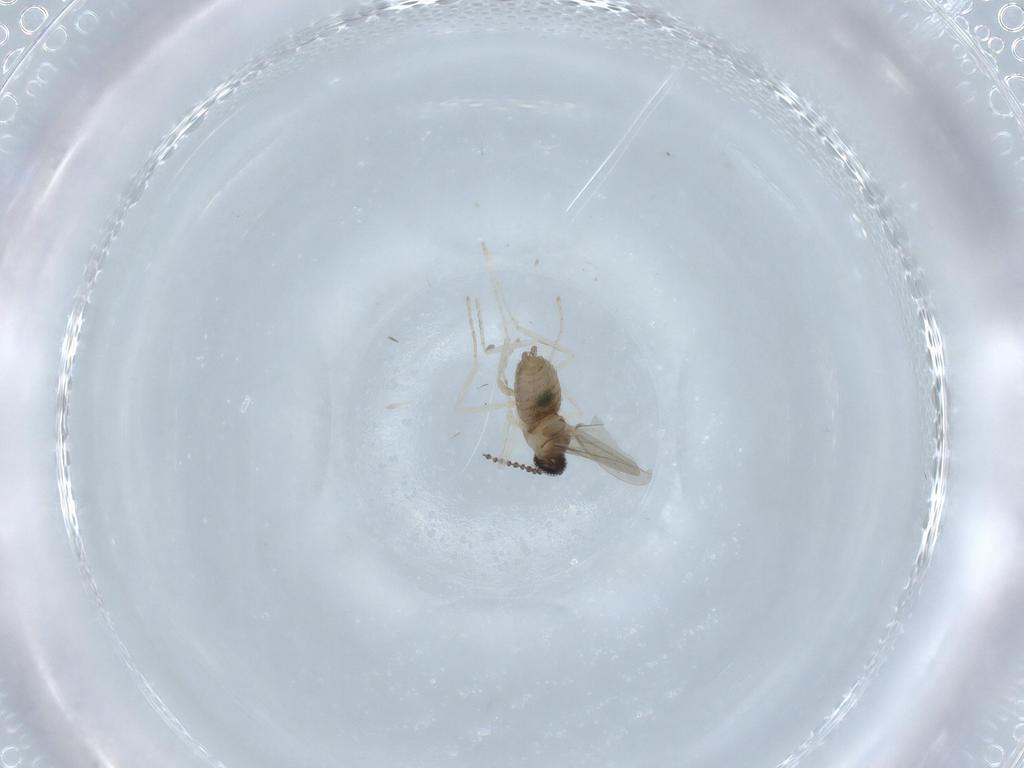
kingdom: Animalia
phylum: Arthropoda
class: Insecta
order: Diptera
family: Cecidomyiidae
